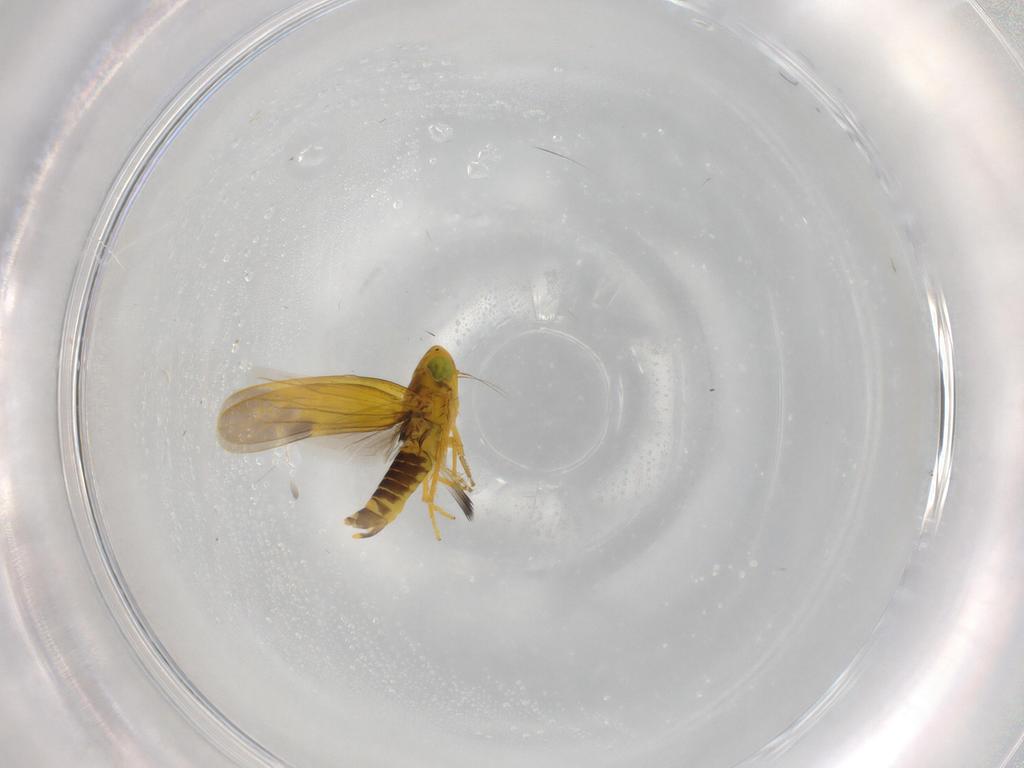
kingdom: Animalia
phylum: Arthropoda
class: Insecta
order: Hemiptera
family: Cicadellidae
